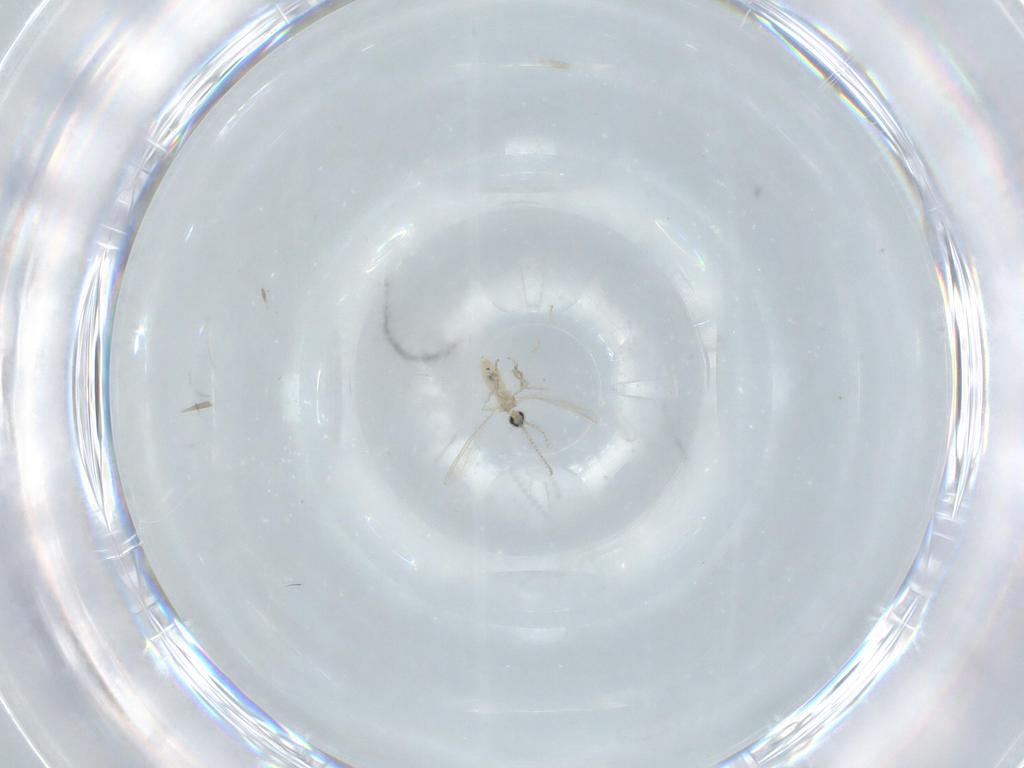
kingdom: Animalia
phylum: Arthropoda
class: Insecta
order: Diptera
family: Cecidomyiidae
